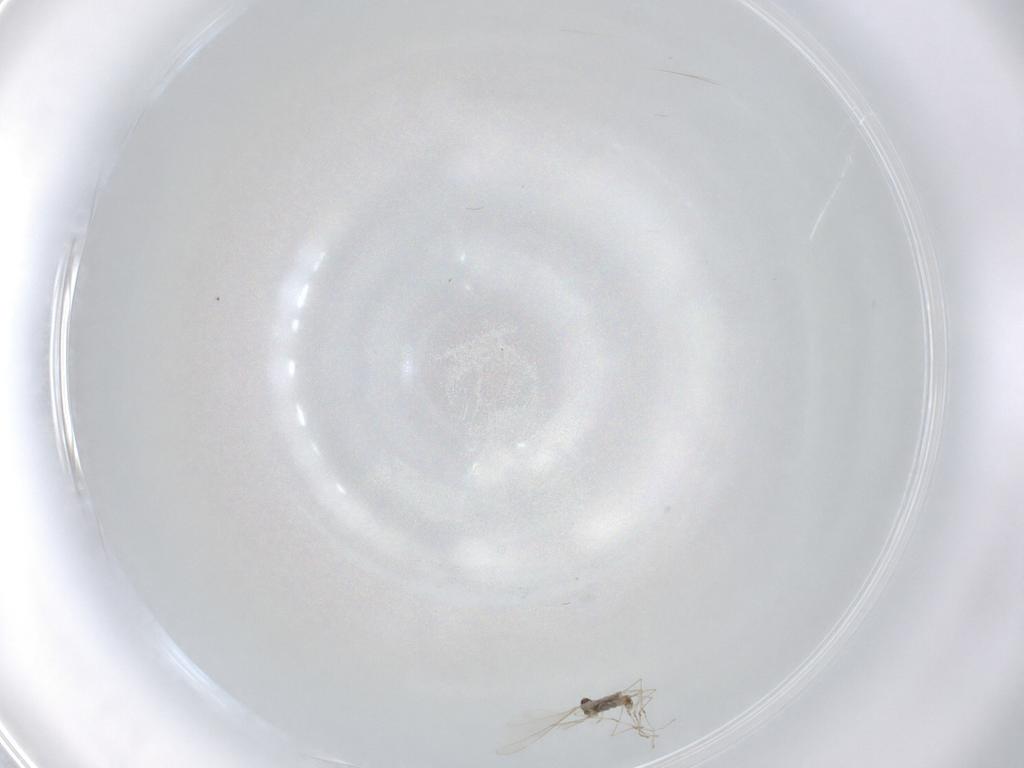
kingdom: Animalia
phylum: Arthropoda
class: Insecta
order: Diptera
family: Cecidomyiidae
